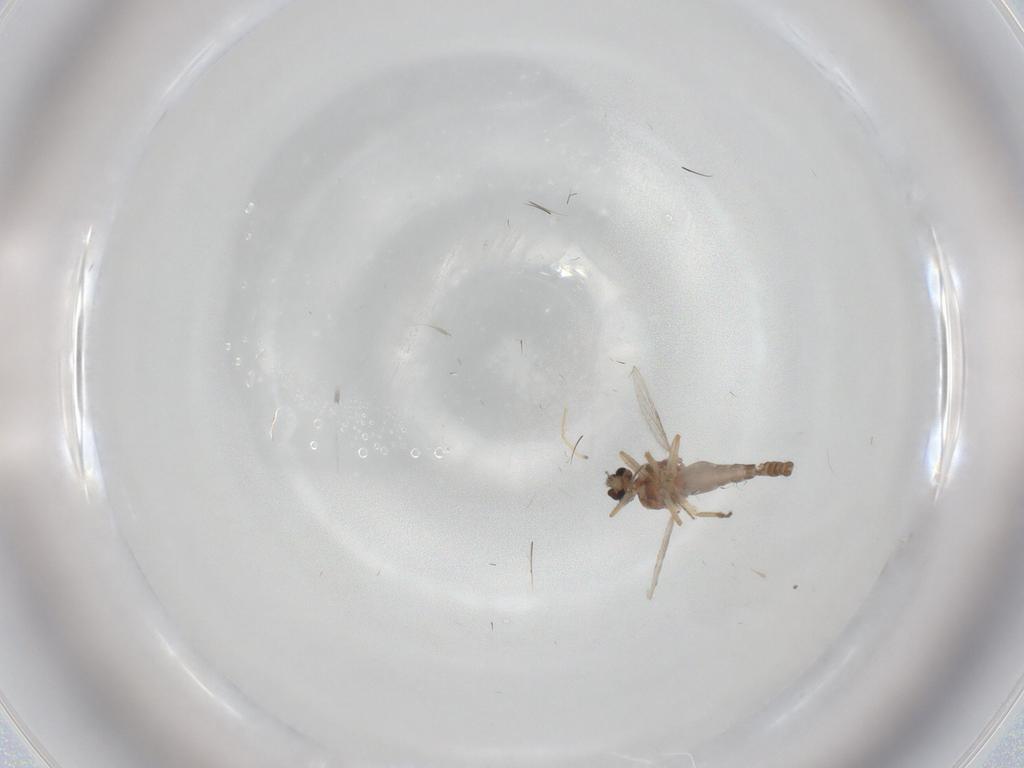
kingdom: Animalia
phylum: Arthropoda
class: Insecta
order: Diptera
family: Ceratopogonidae
